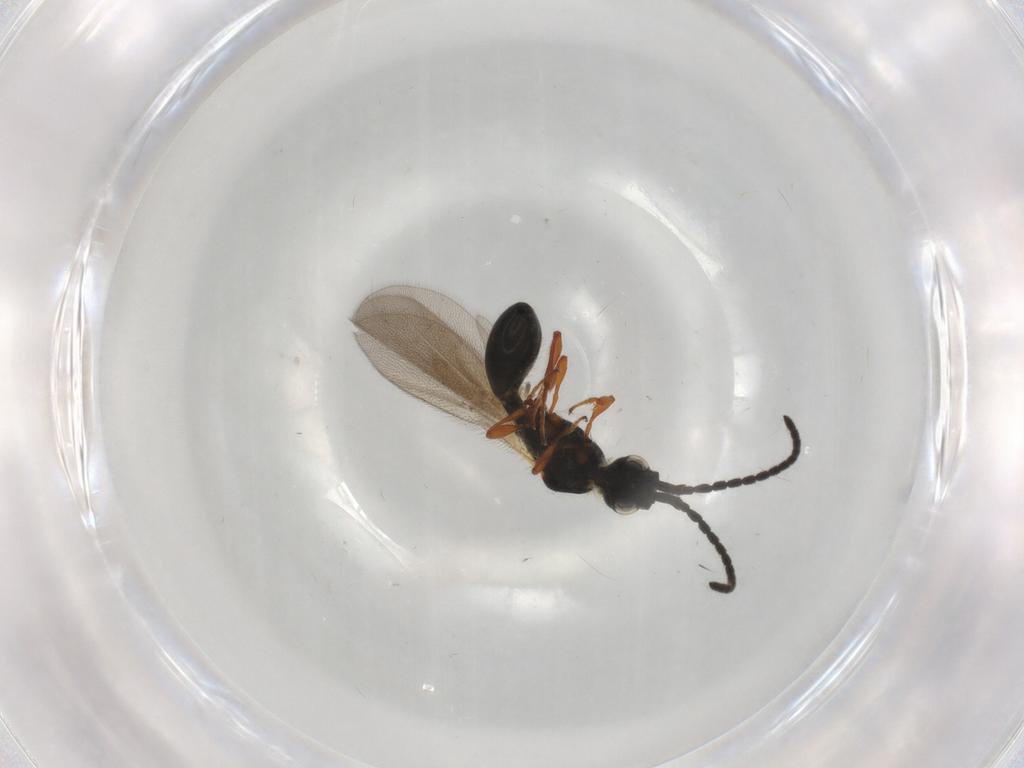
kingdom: Animalia
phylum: Arthropoda
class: Insecta
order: Hymenoptera
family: Diapriidae
